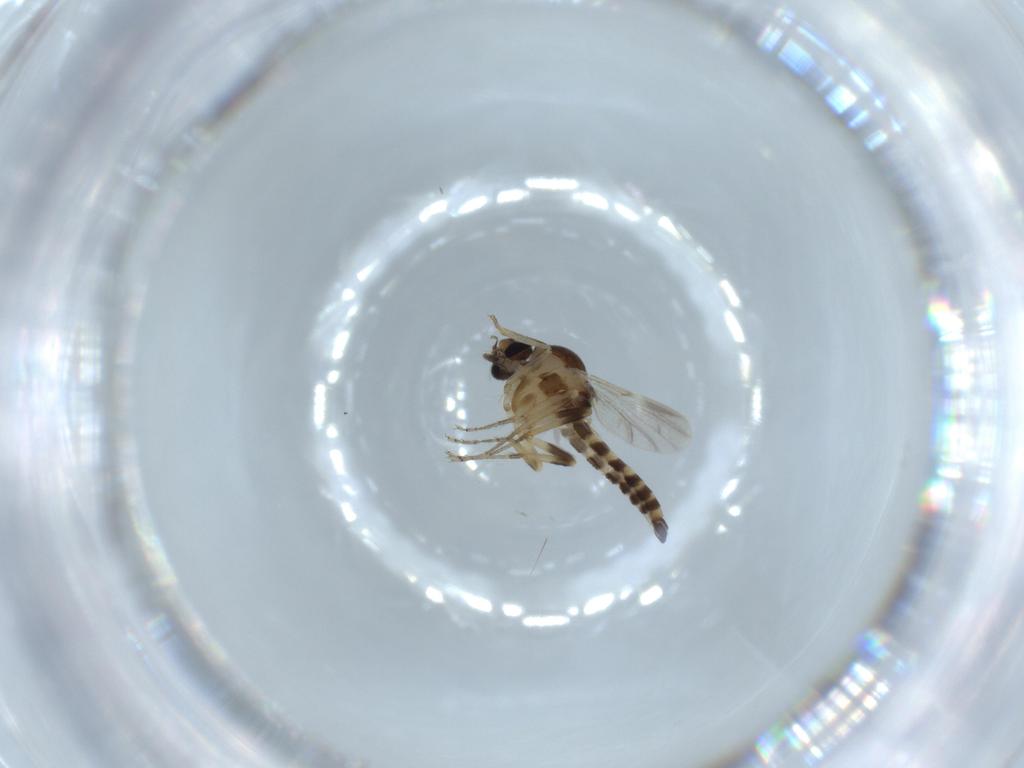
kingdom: Animalia
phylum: Arthropoda
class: Insecta
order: Diptera
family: Ceratopogonidae
